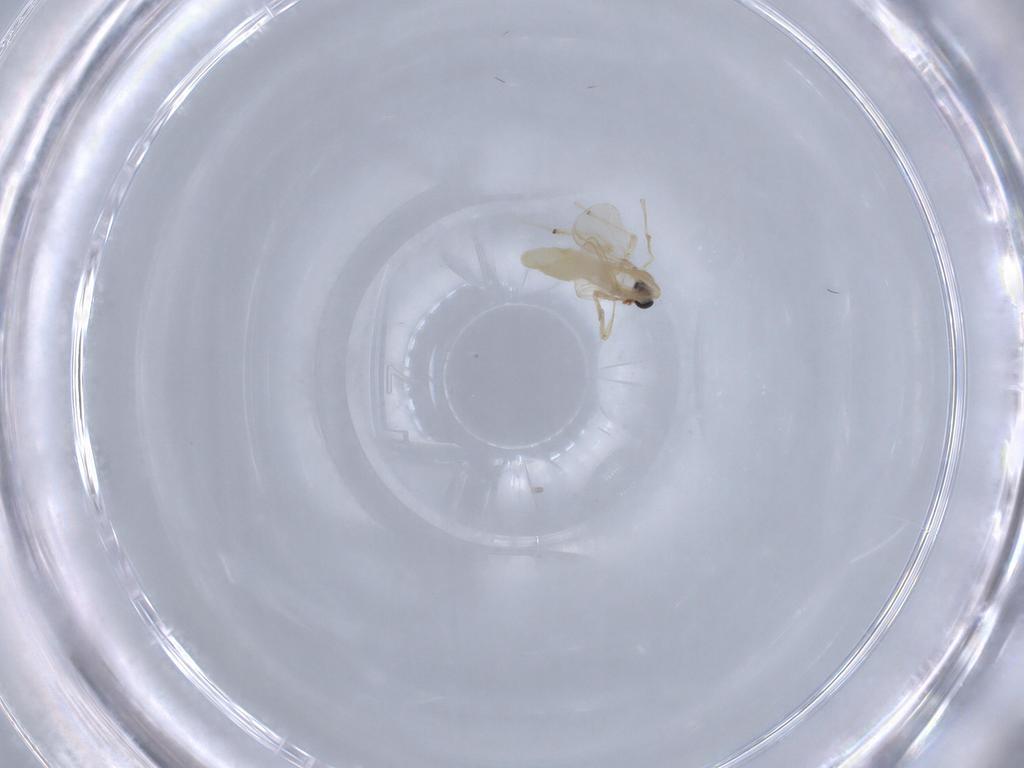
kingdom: Animalia
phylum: Arthropoda
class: Insecta
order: Diptera
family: Chironomidae
